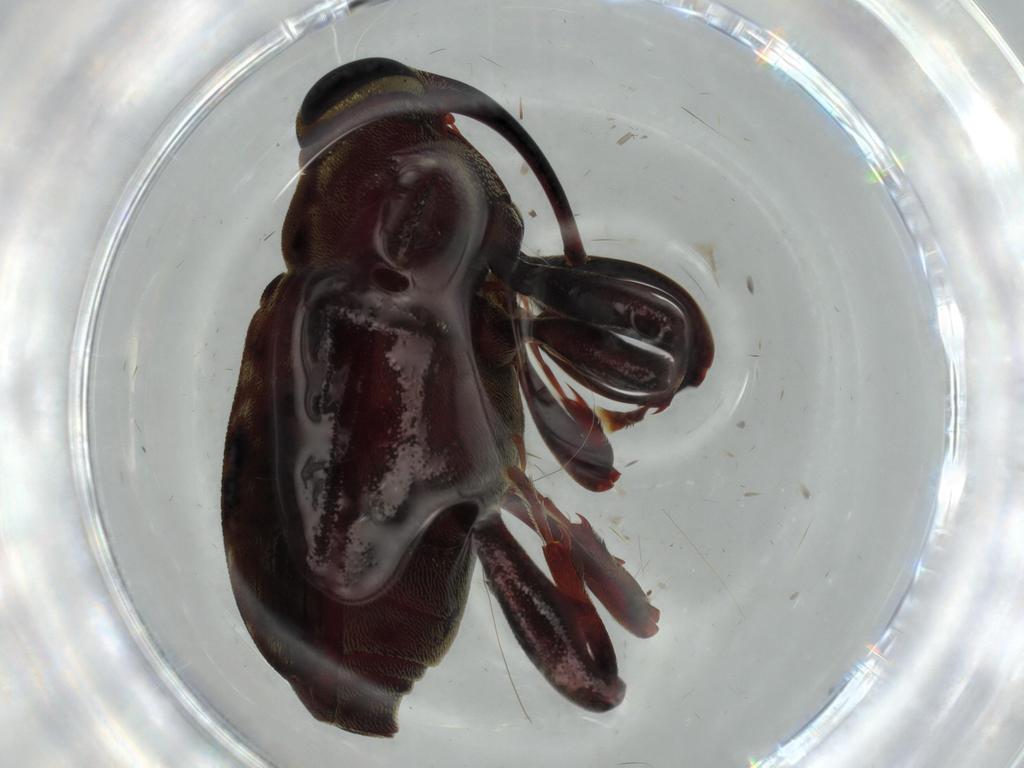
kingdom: Animalia
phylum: Arthropoda
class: Insecta
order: Coleoptera
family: Curculionidae
